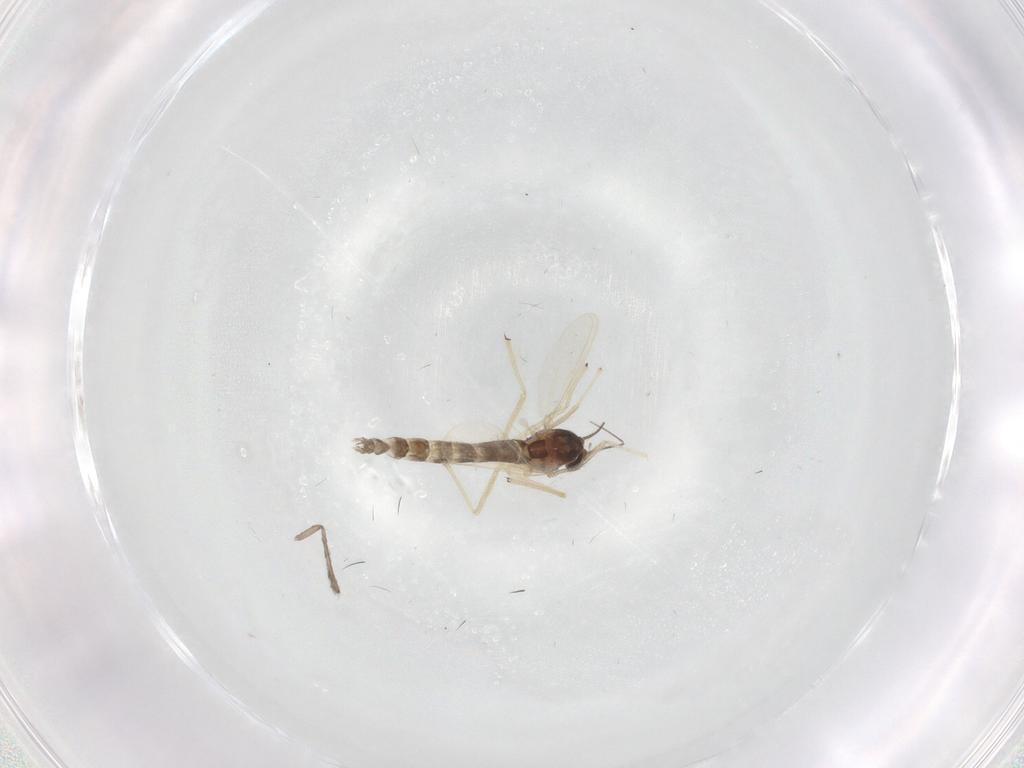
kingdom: Animalia
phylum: Arthropoda
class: Insecta
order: Diptera
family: Chironomidae
